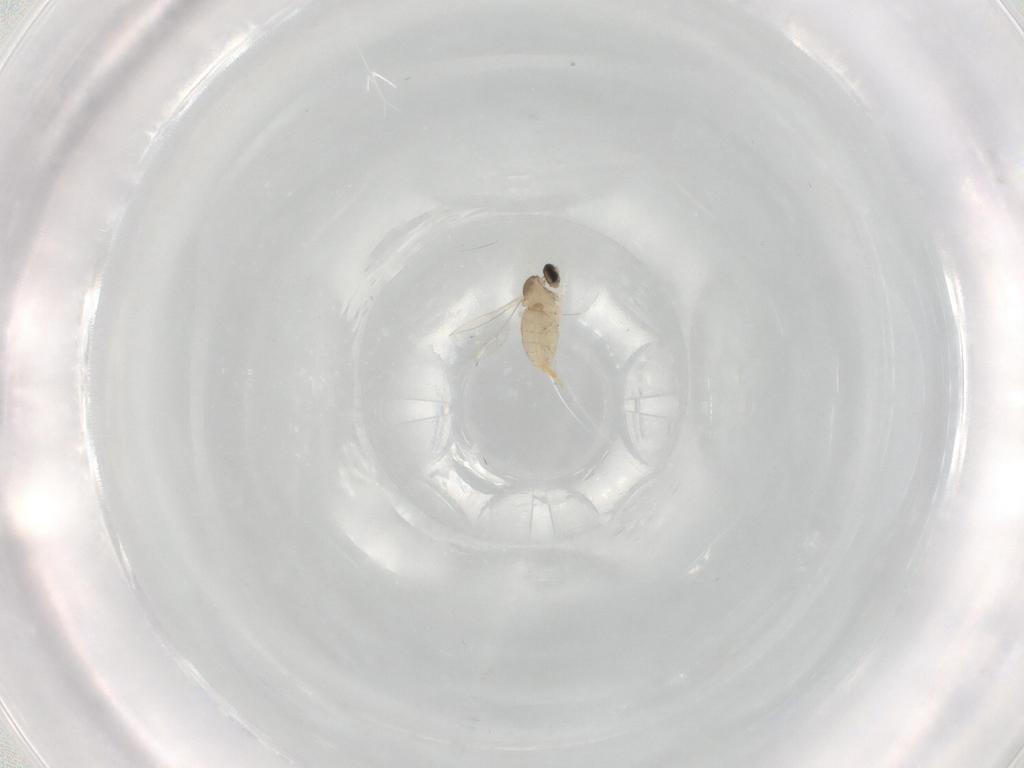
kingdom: Animalia
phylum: Arthropoda
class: Insecta
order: Diptera
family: Cecidomyiidae
